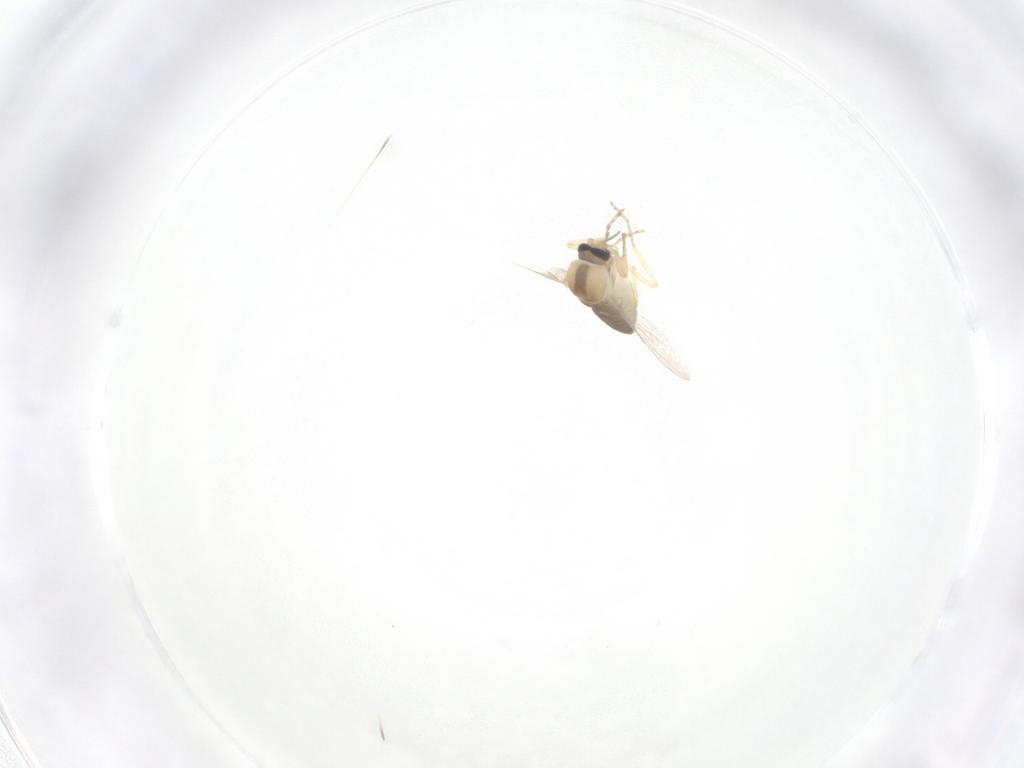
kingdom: Animalia
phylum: Arthropoda
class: Insecta
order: Diptera
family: Ceratopogonidae
